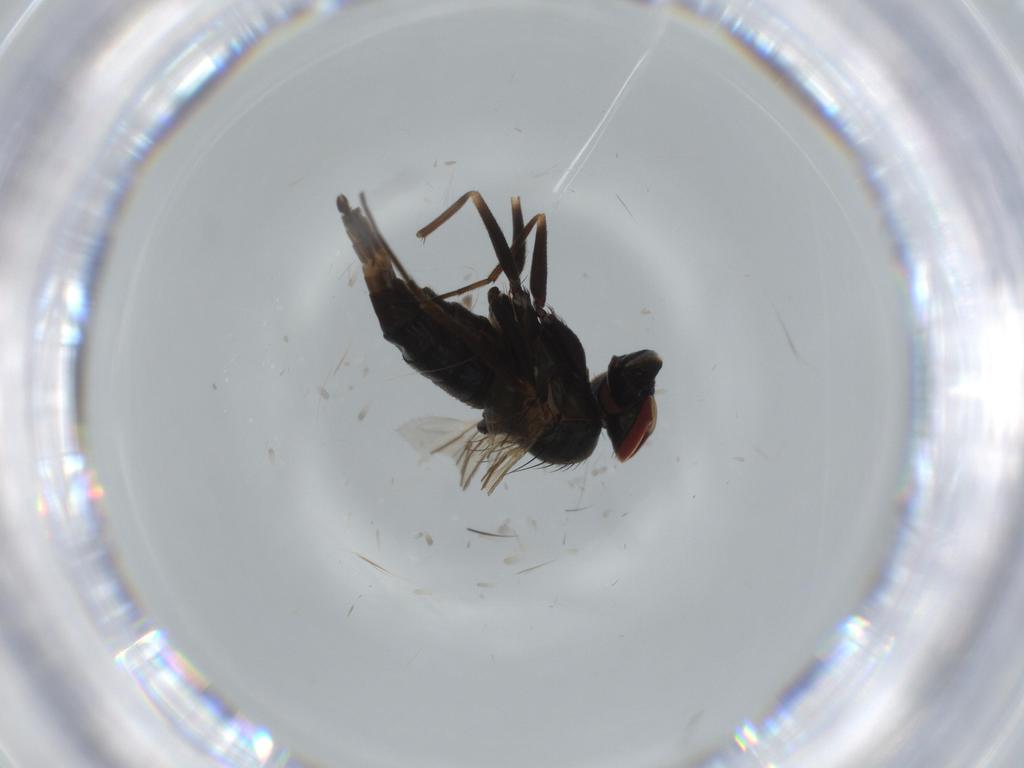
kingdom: Animalia
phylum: Arthropoda
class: Insecta
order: Diptera
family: Dolichopodidae
